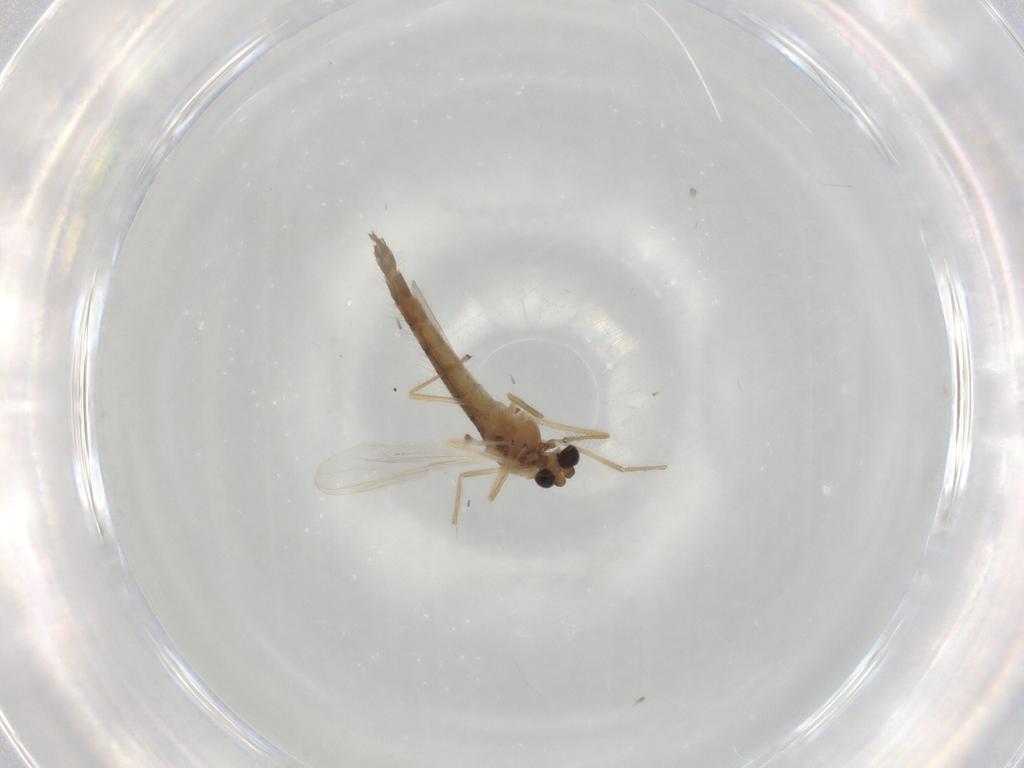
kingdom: Animalia
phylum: Arthropoda
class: Insecta
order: Diptera
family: Chironomidae
